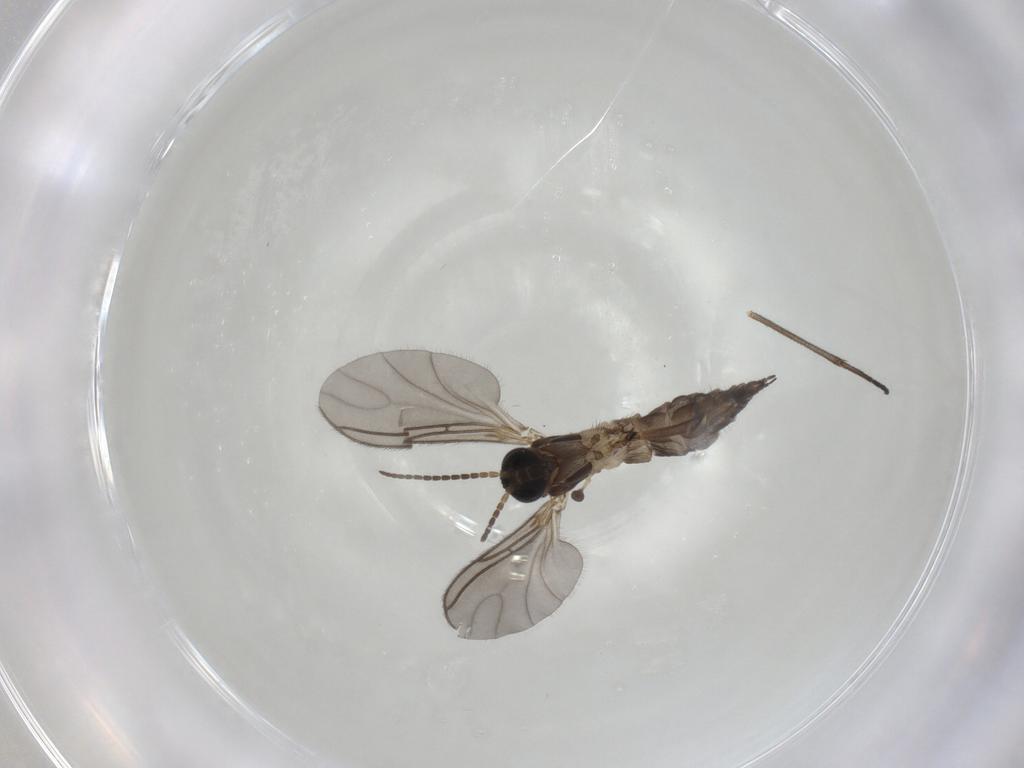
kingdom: Animalia
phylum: Arthropoda
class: Insecta
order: Diptera
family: Sciaridae
